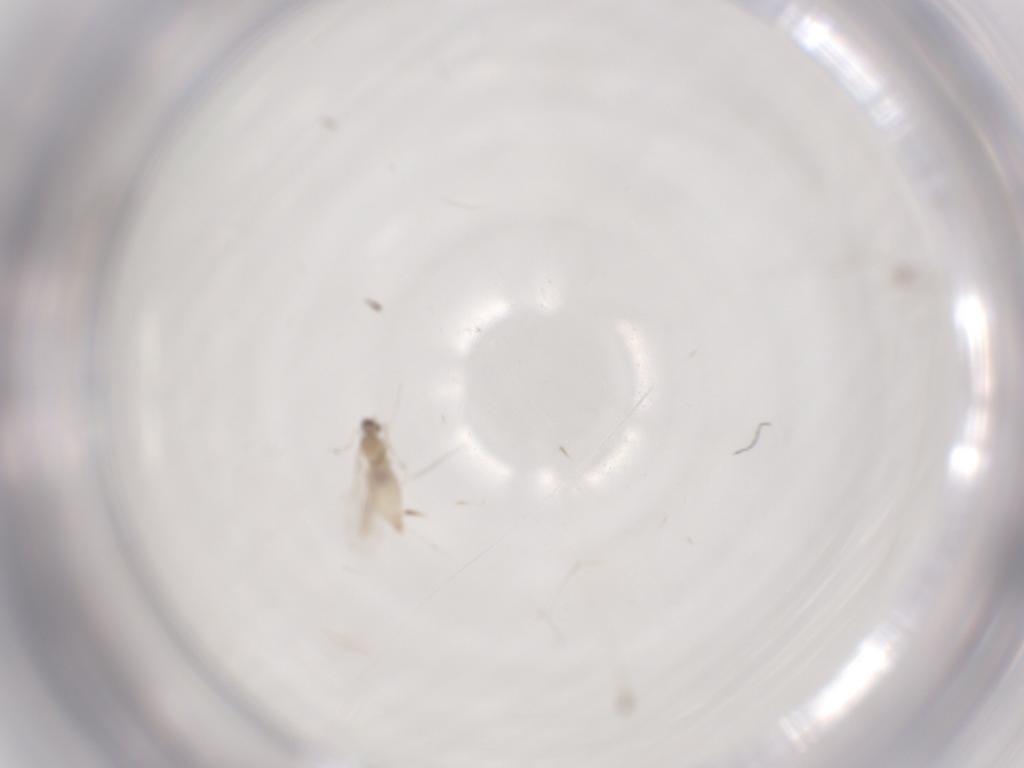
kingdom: Animalia
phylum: Arthropoda
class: Insecta
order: Diptera
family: Cecidomyiidae
